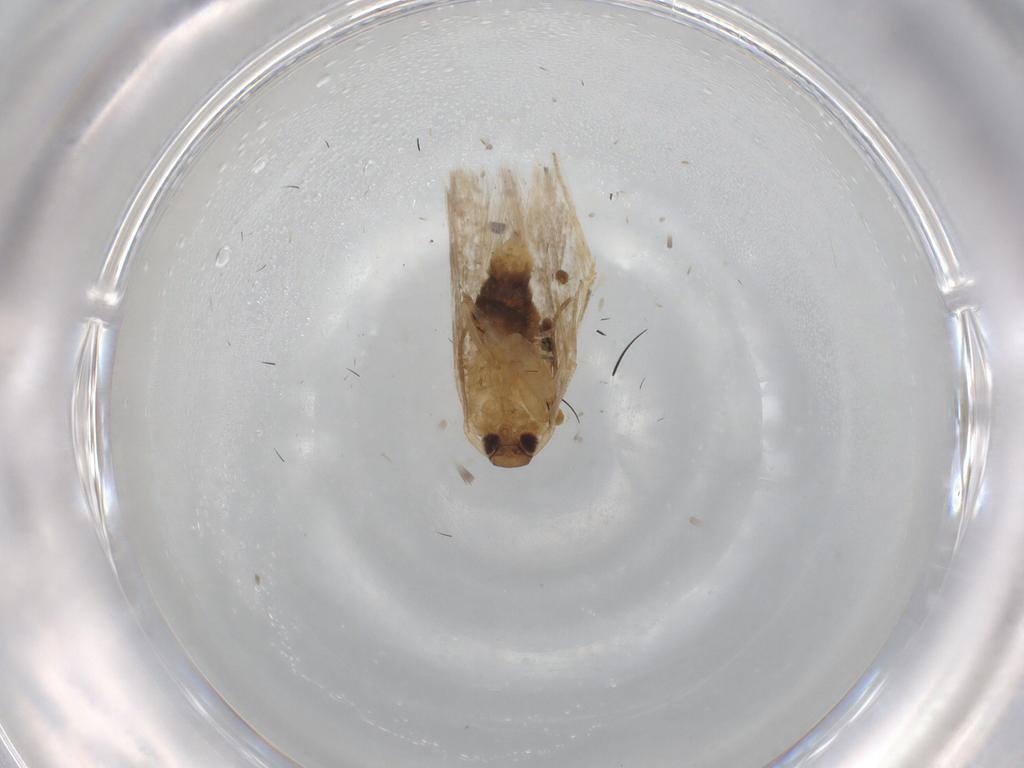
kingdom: Animalia
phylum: Arthropoda
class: Insecta
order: Lepidoptera
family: Cosmopterigidae
